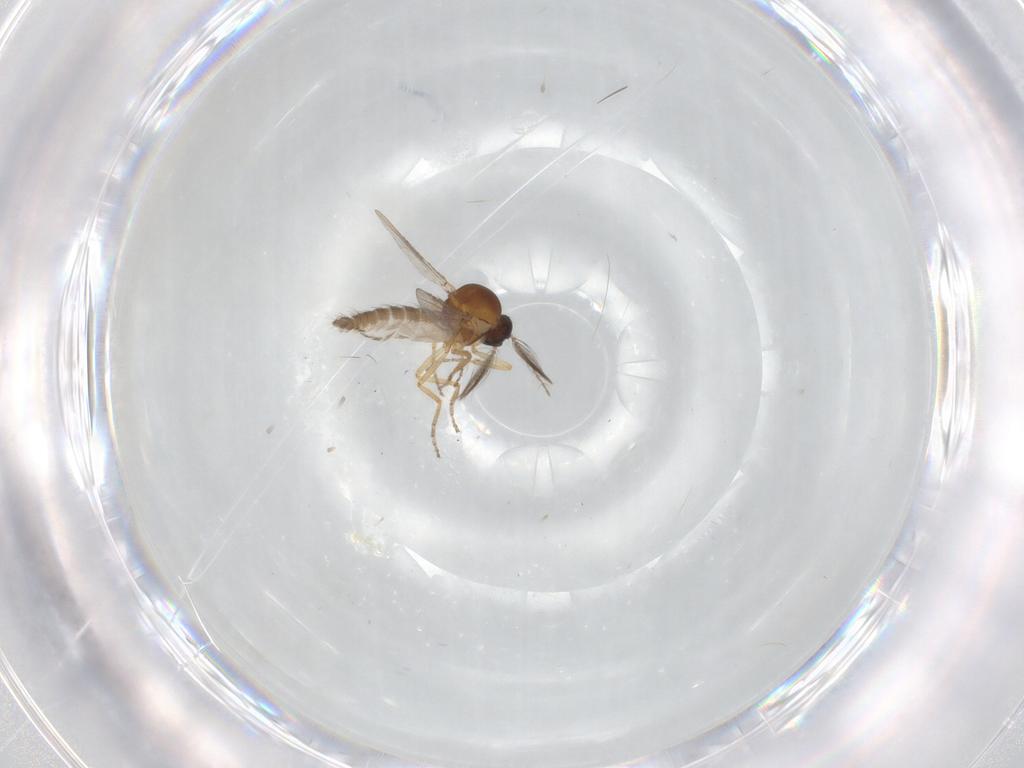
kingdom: Animalia
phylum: Arthropoda
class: Insecta
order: Diptera
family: Ceratopogonidae
